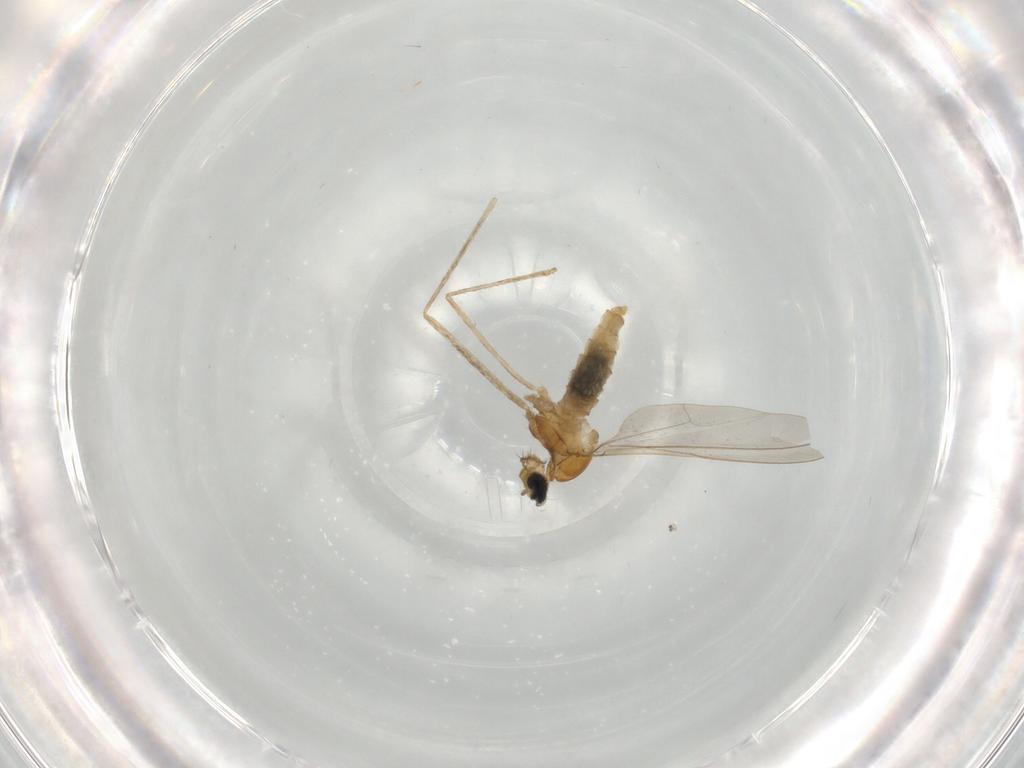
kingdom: Animalia
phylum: Arthropoda
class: Insecta
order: Diptera
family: Cecidomyiidae
